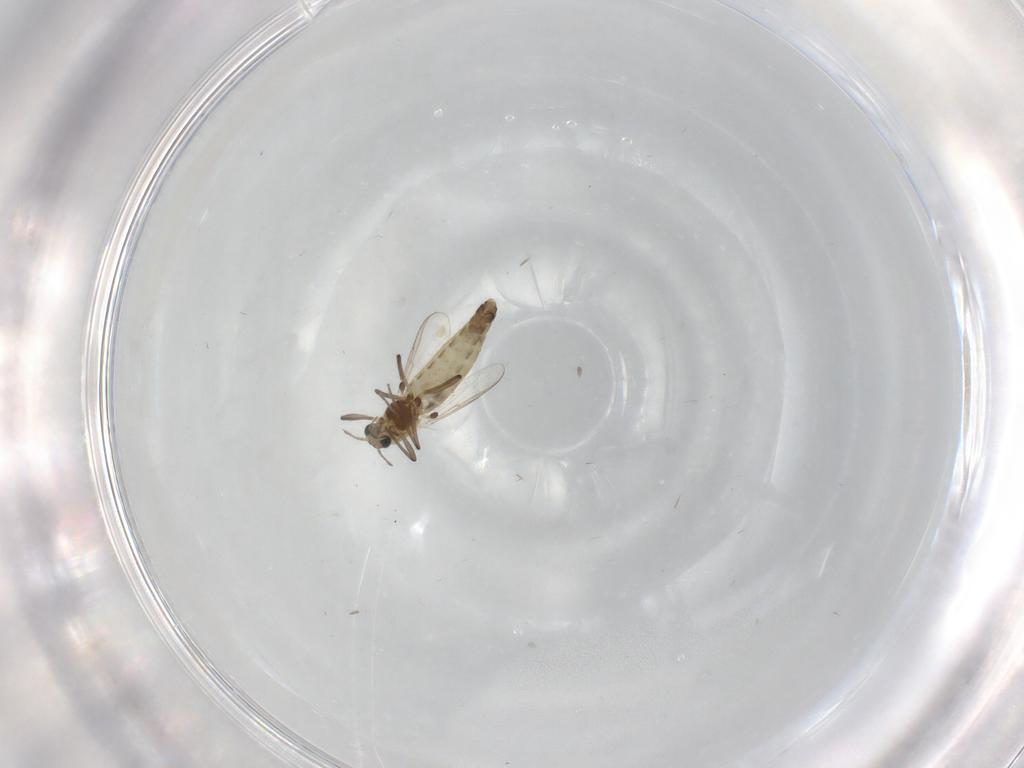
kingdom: Animalia
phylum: Arthropoda
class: Insecta
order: Diptera
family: Chironomidae
